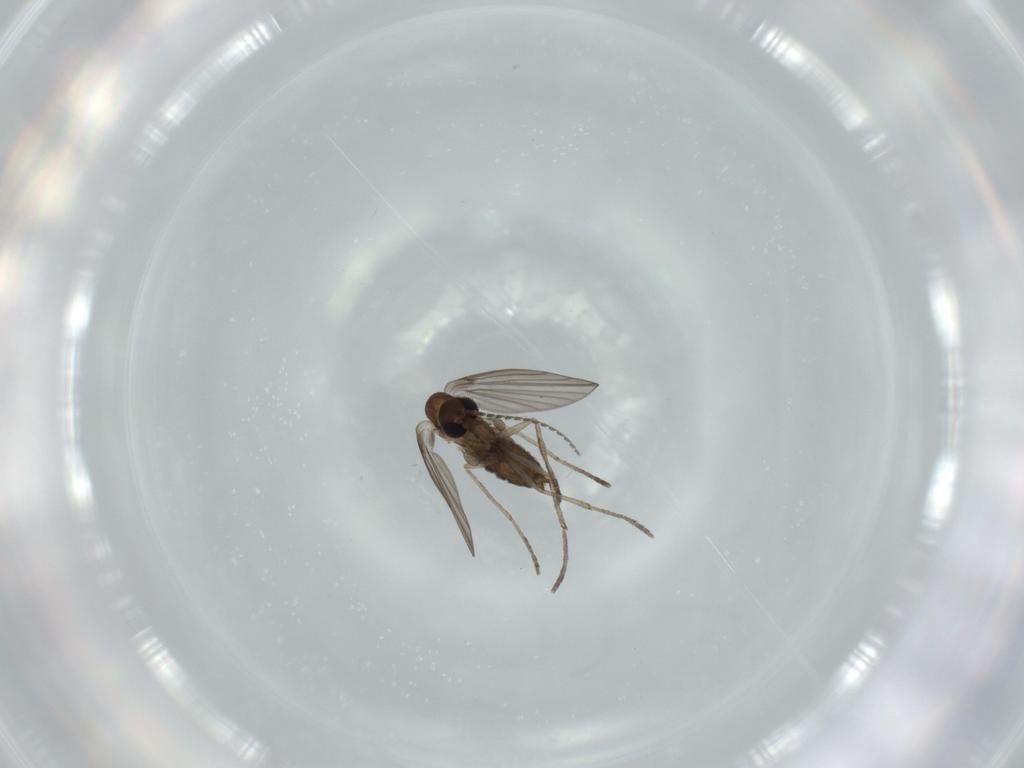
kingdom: Animalia
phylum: Arthropoda
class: Insecta
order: Diptera
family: Psychodidae
